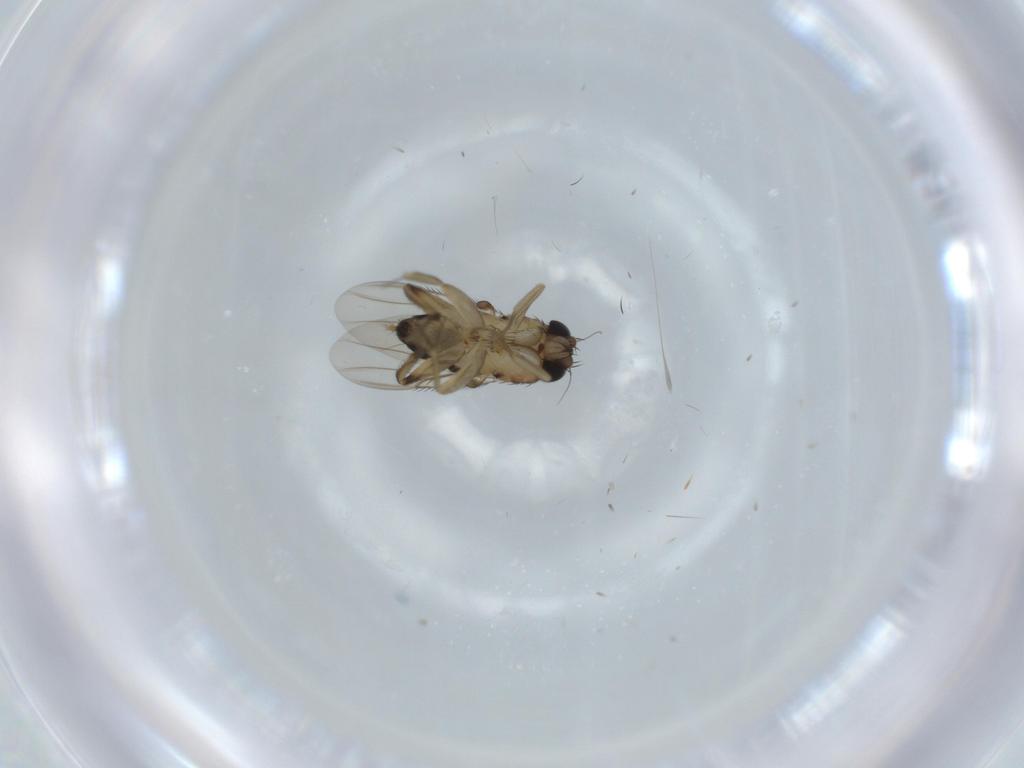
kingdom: Animalia
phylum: Arthropoda
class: Insecta
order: Diptera
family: Phoridae
